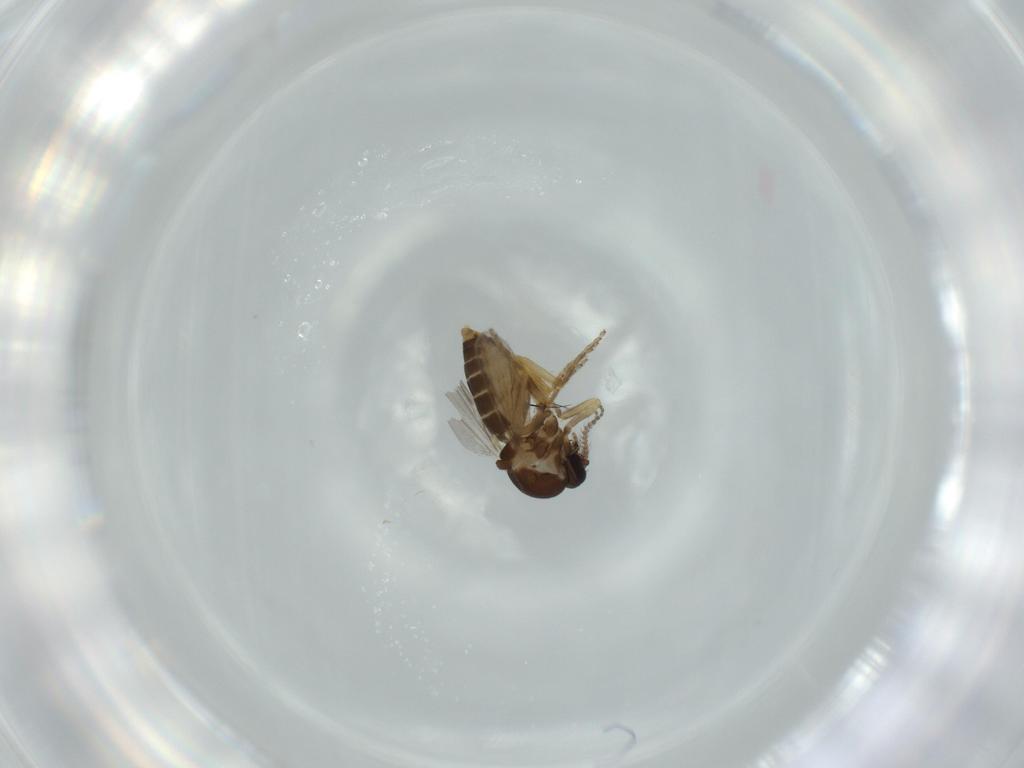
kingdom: Animalia
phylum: Arthropoda
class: Insecta
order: Diptera
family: Ceratopogonidae
